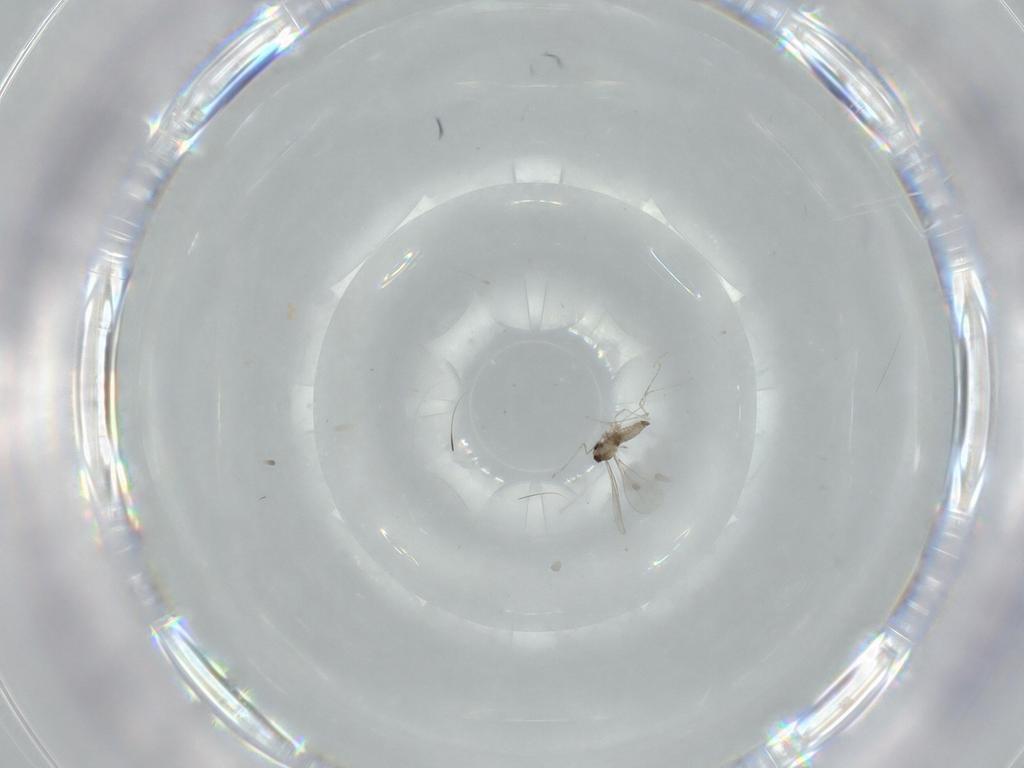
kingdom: Animalia
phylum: Arthropoda
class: Insecta
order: Diptera
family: Cecidomyiidae
